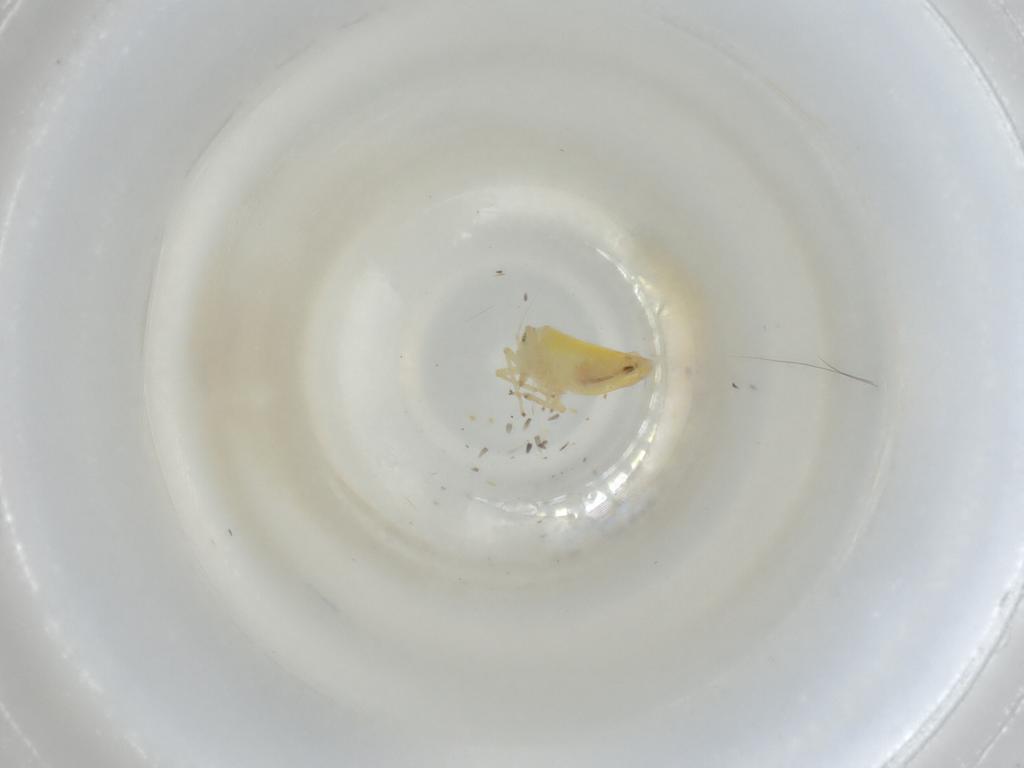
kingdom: Animalia
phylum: Arthropoda
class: Insecta
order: Hemiptera
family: Cicadellidae
